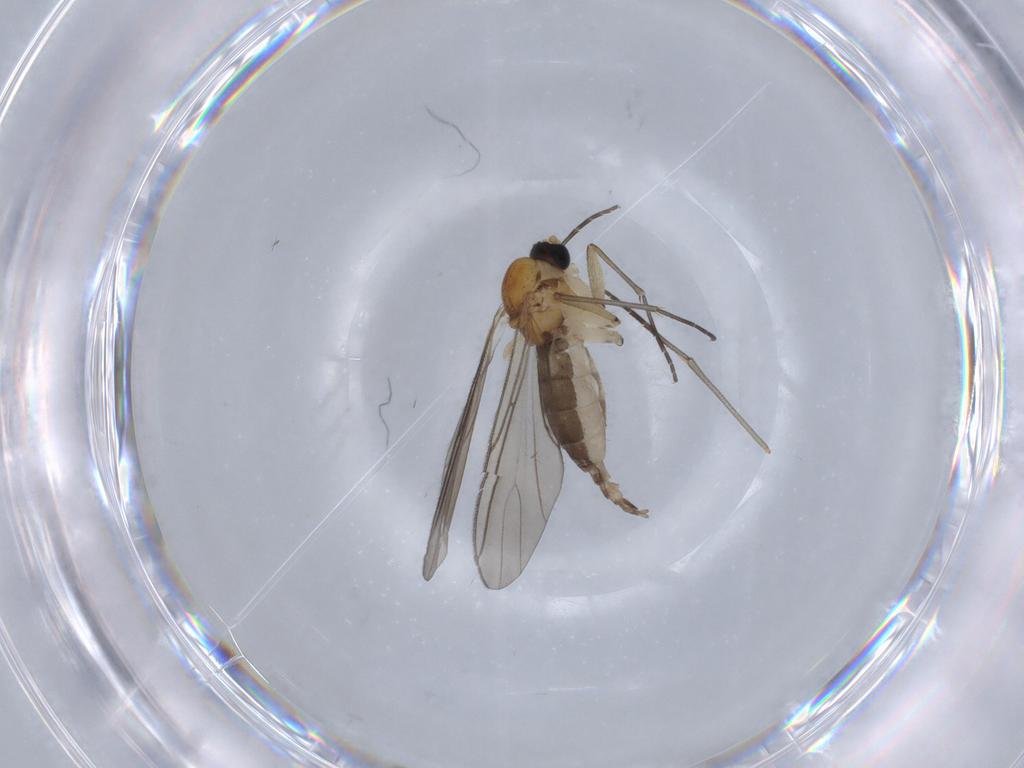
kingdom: Animalia
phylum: Arthropoda
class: Insecta
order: Diptera
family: Sciaridae
